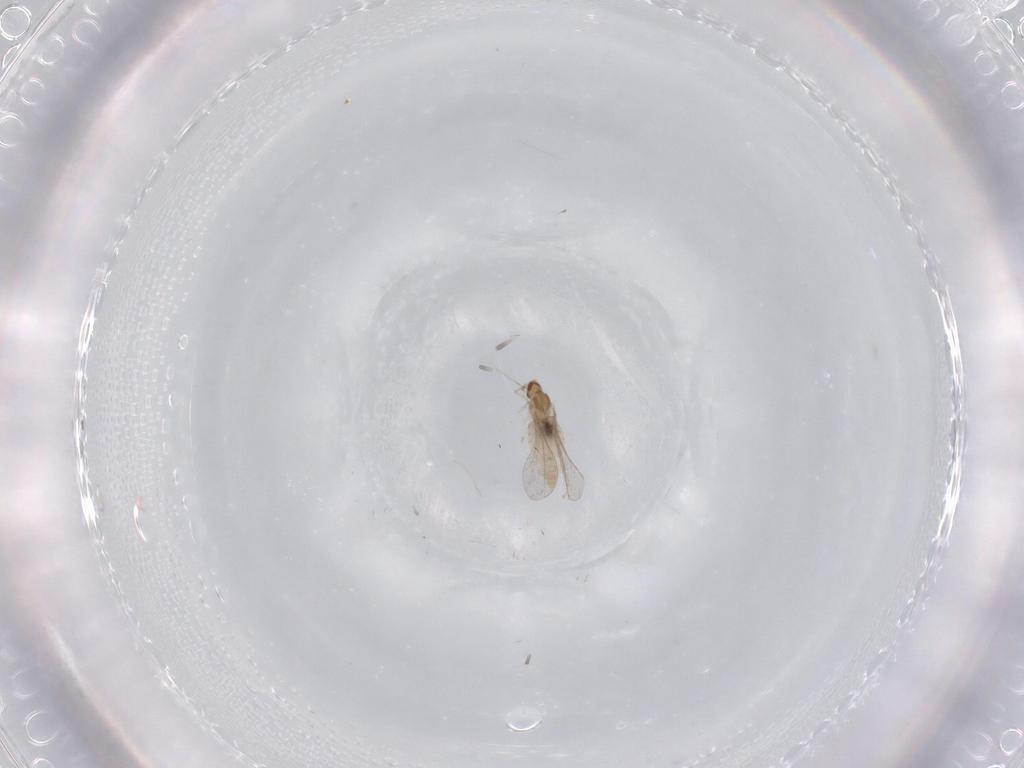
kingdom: Animalia
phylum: Arthropoda
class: Insecta
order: Diptera
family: Cecidomyiidae
